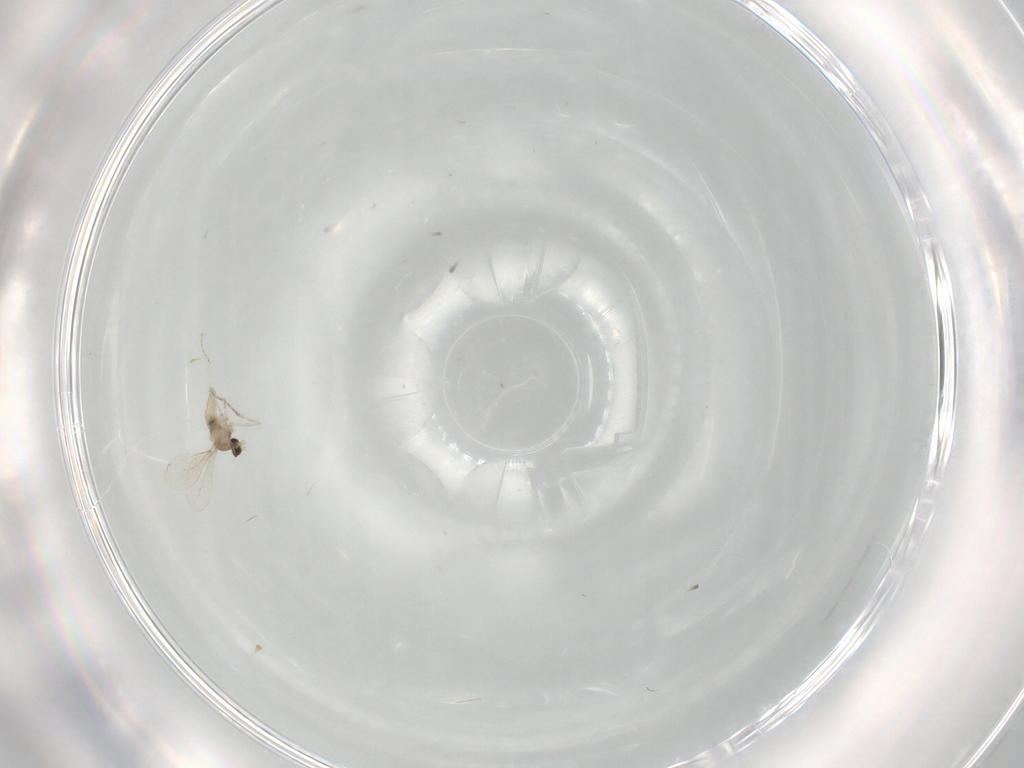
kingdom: Animalia
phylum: Arthropoda
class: Insecta
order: Diptera
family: Cecidomyiidae
